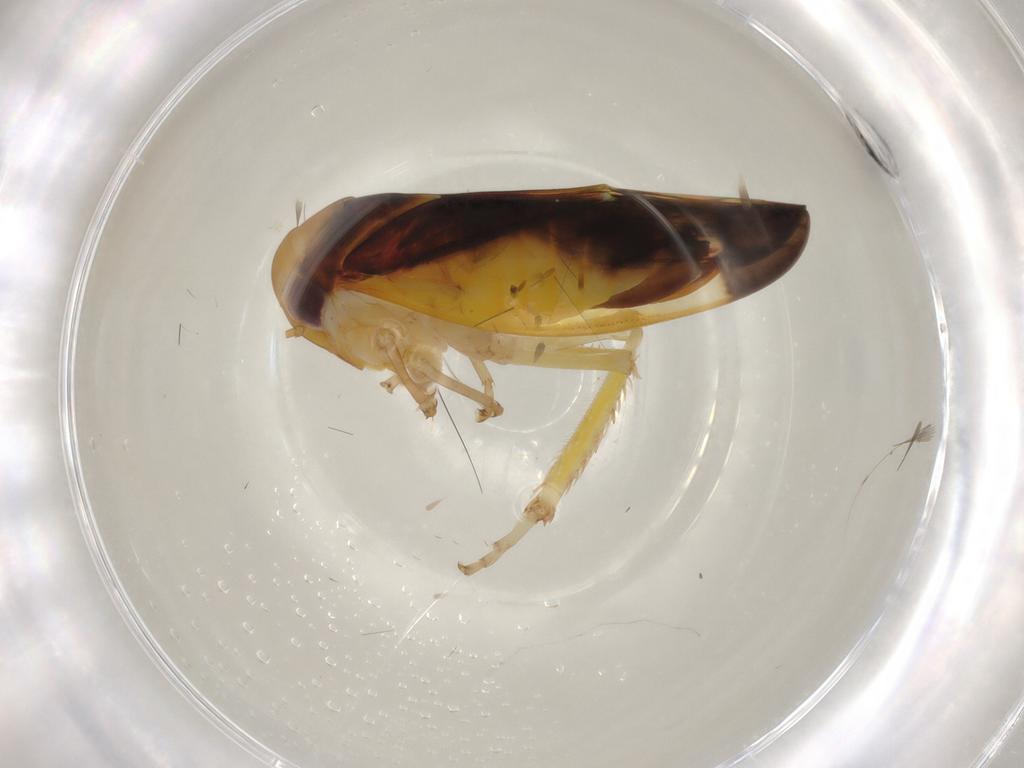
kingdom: Animalia
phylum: Arthropoda
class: Insecta
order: Hemiptera
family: Cicadellidae
